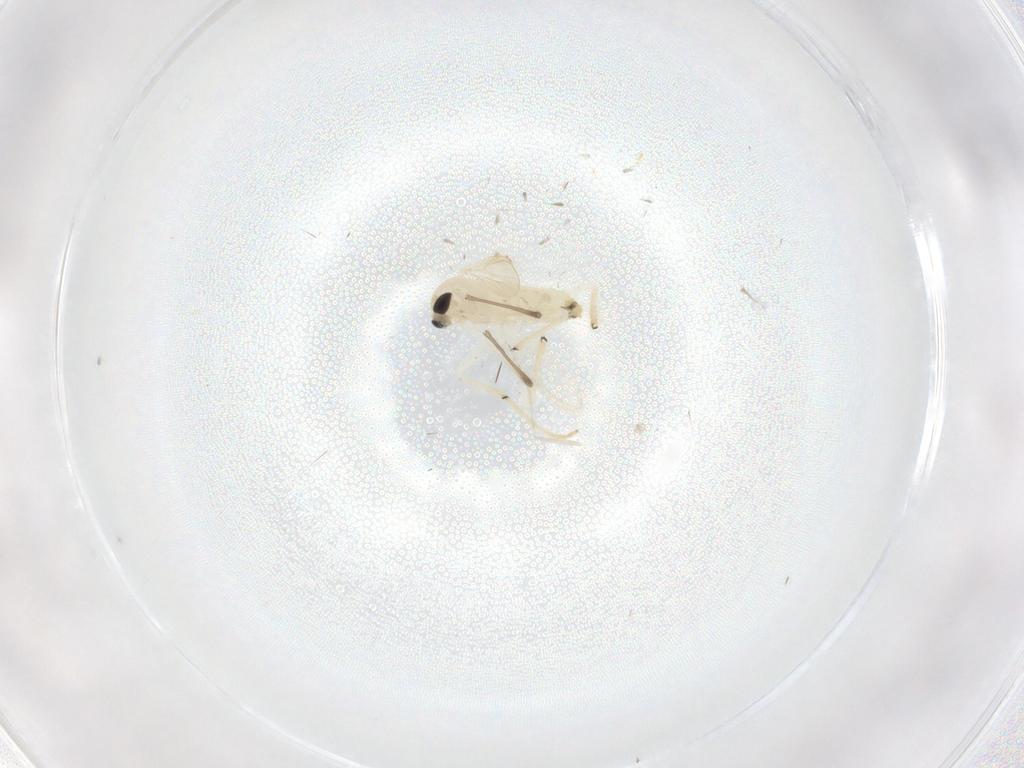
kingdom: Animalia
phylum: Arthropoda
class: Insecta
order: Diptera
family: Chironomidae
